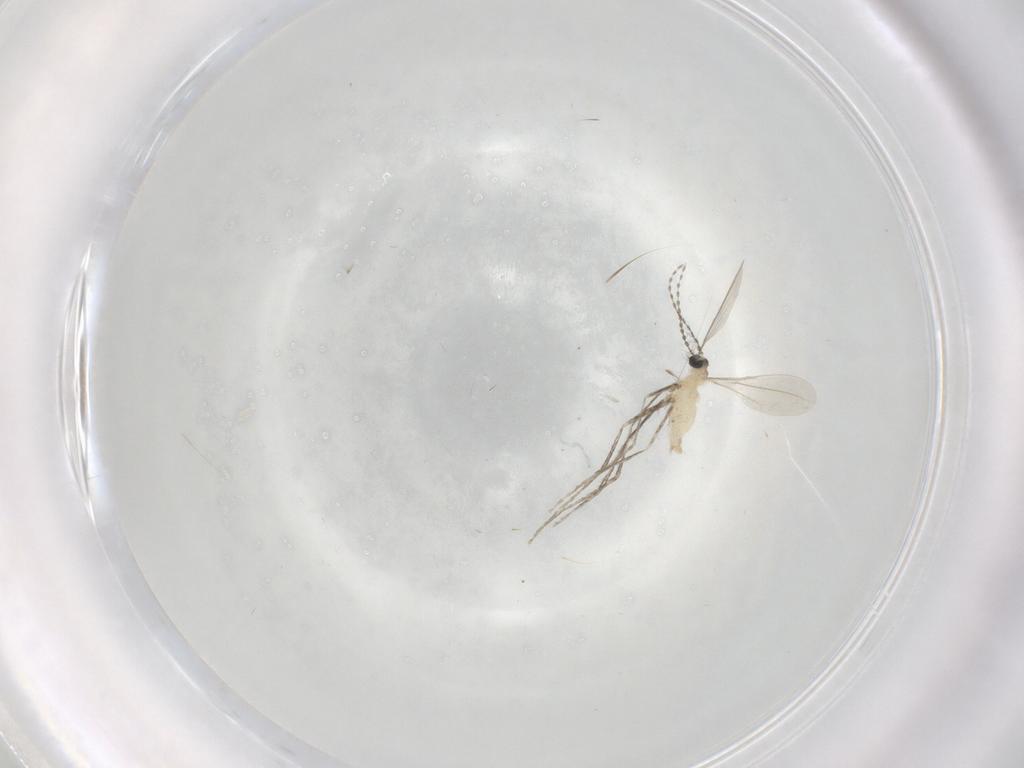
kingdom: Animalia
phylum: Arthropoda
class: Insecta
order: Diptera
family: Cecidomyiidae
